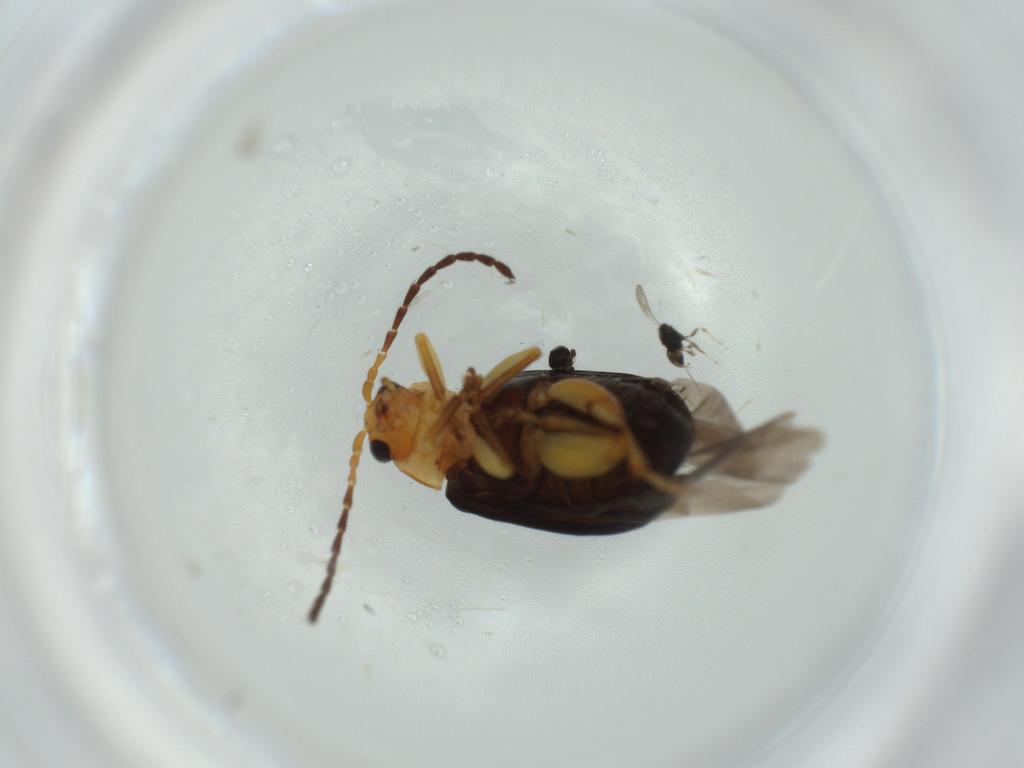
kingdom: Animalia
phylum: Arthropoda
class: Insecta
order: Coleoptera
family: Chrysomelidae
